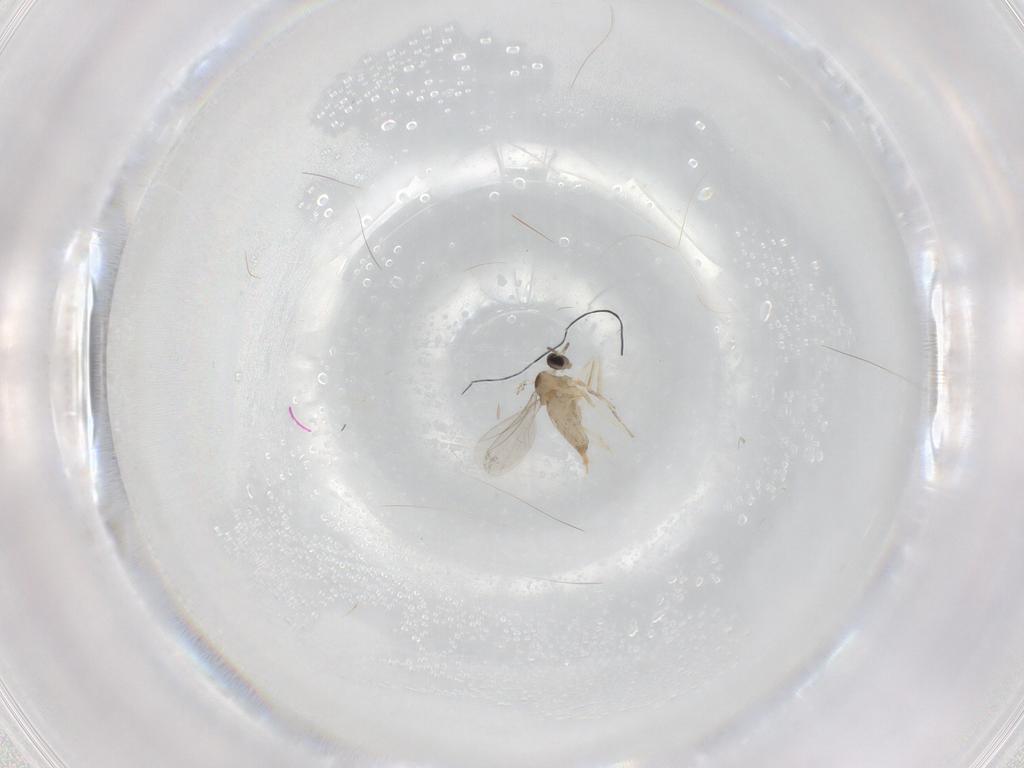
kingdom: Animalia
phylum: Arthropoda
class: Insecta
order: Diptera
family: Cecidomyiidae
